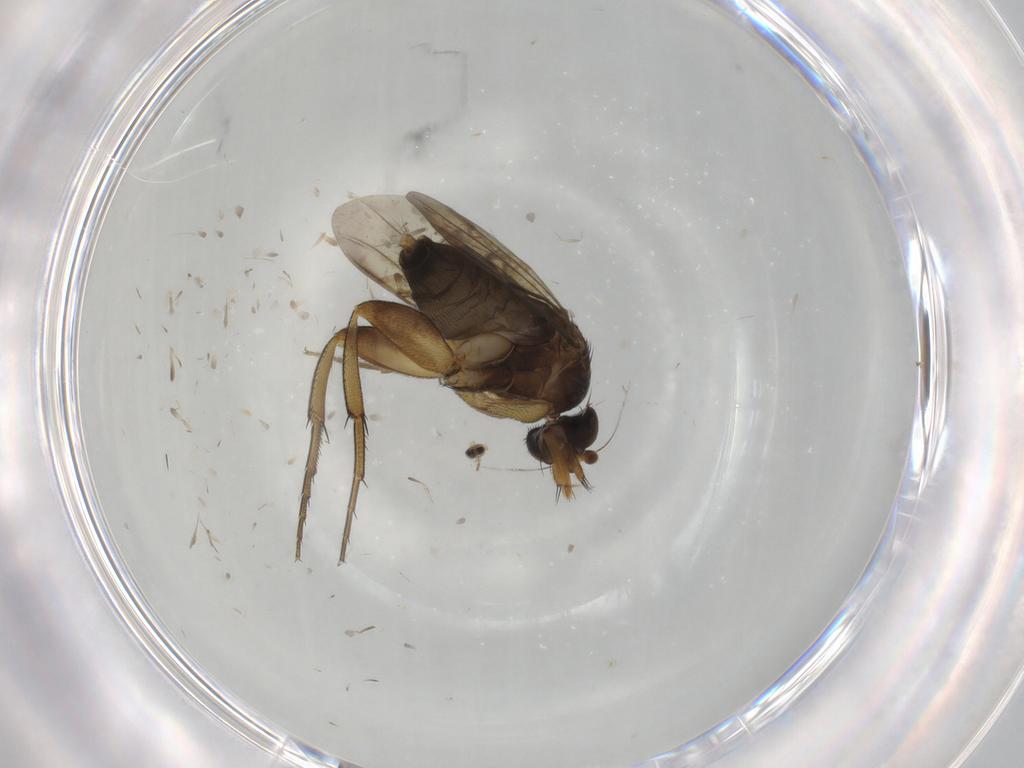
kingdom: Animalia
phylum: Arthropoda
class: Insecta
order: Diptera
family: Phoridae
